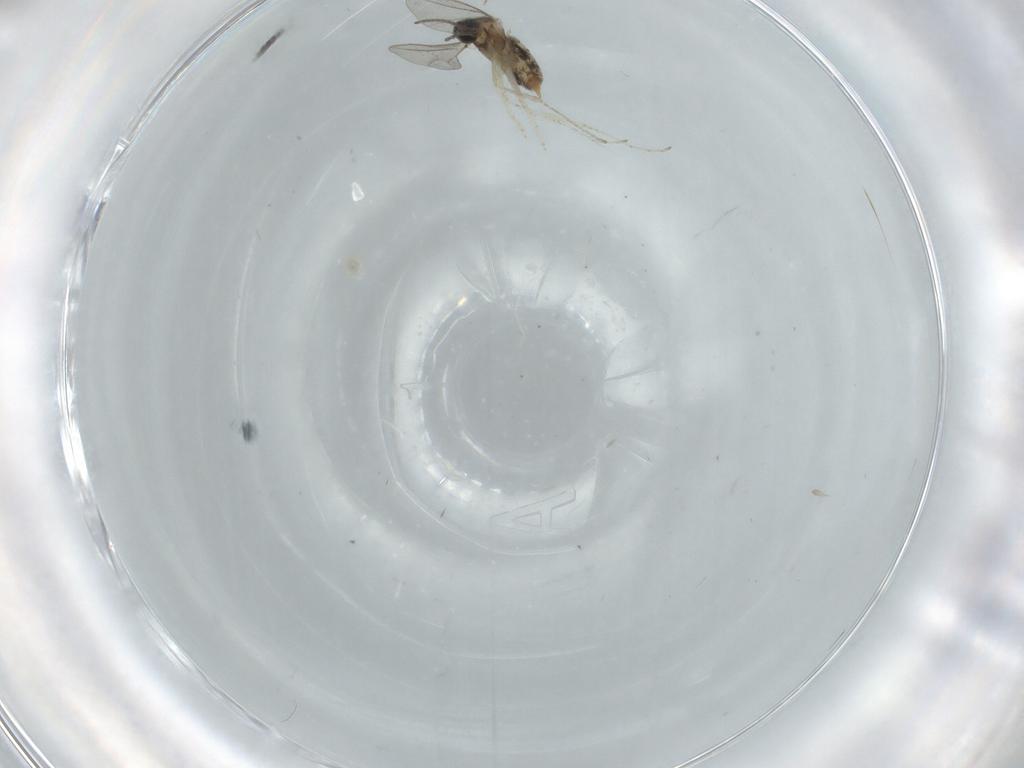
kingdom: Animalia
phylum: Arthropoda
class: Insecta
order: Diptera
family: Cecidomyiidae
